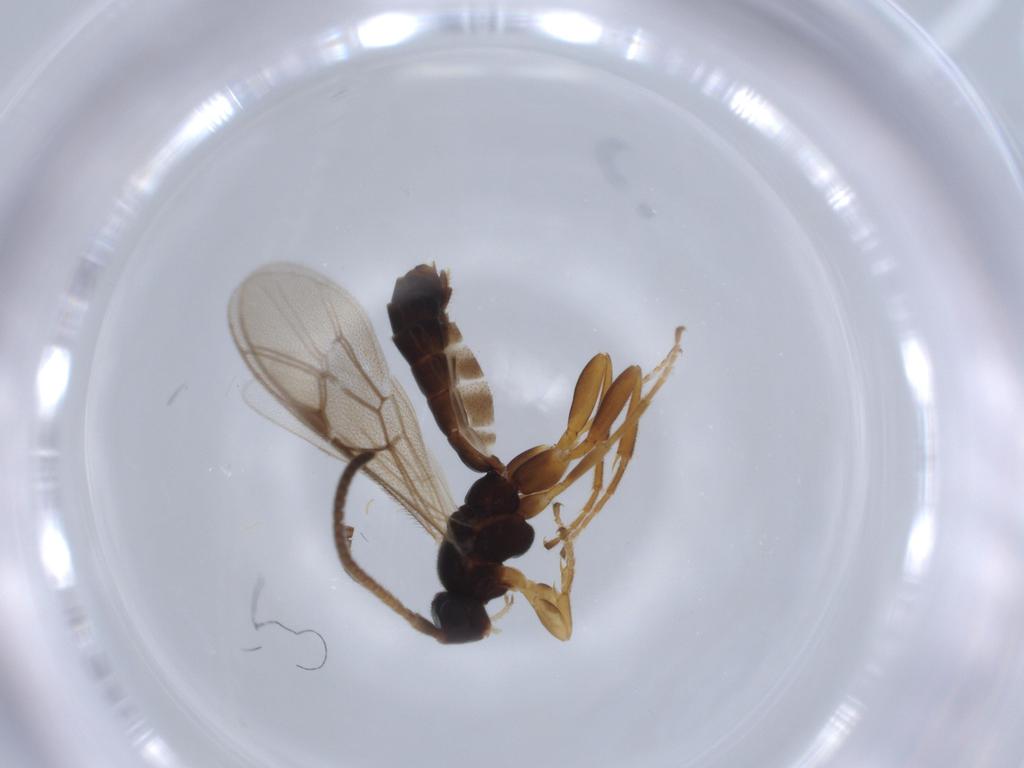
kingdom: Animalia
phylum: Arthropoda
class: Insecta
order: Hymenoptera
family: Ichneumonidae
